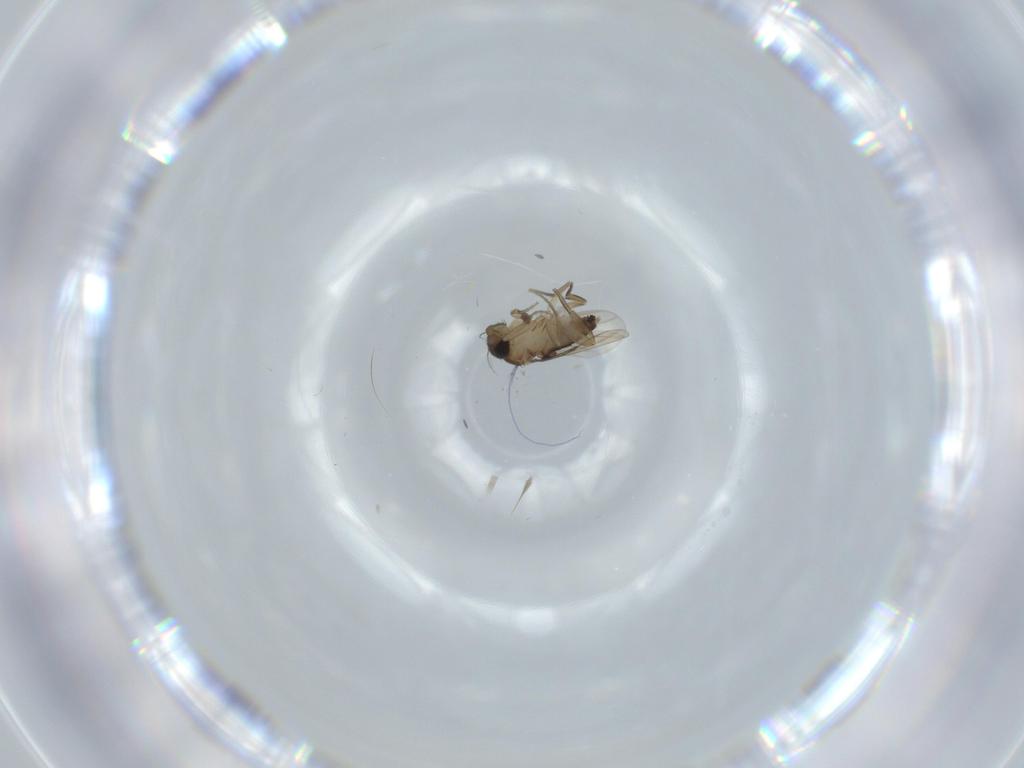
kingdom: Animalia
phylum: Arthropoda
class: Insecta
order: Diptera
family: Phoridae
